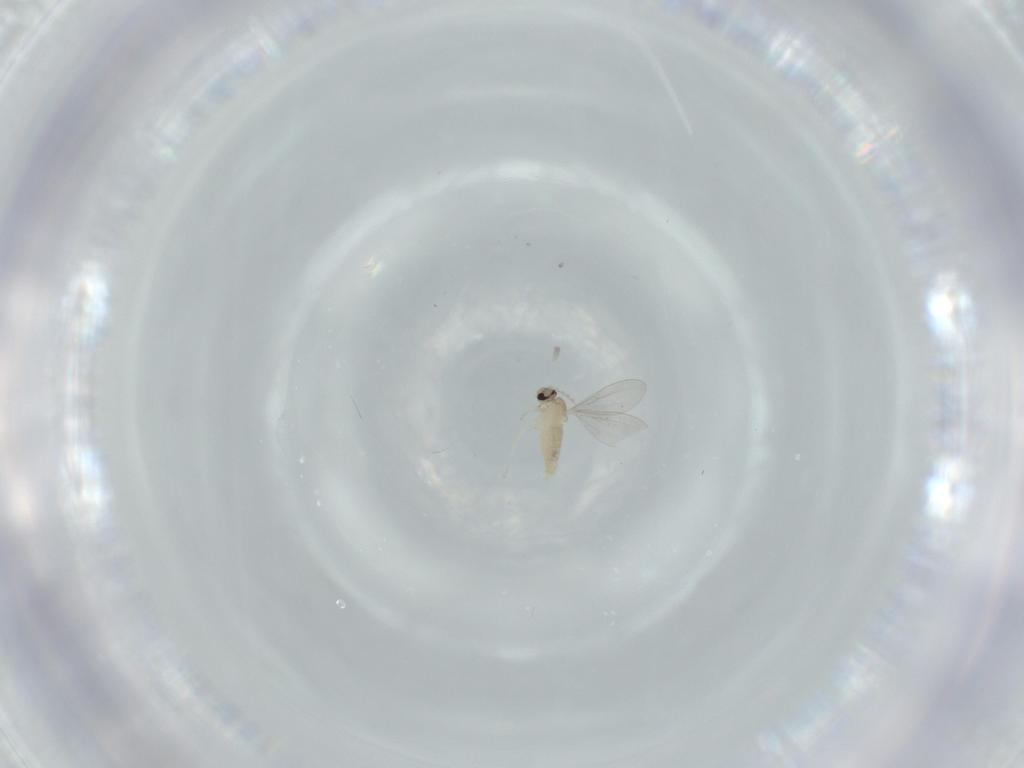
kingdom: Animalia
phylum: Arthropoda
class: Insecta
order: Diptera
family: Cecidomyiidae
